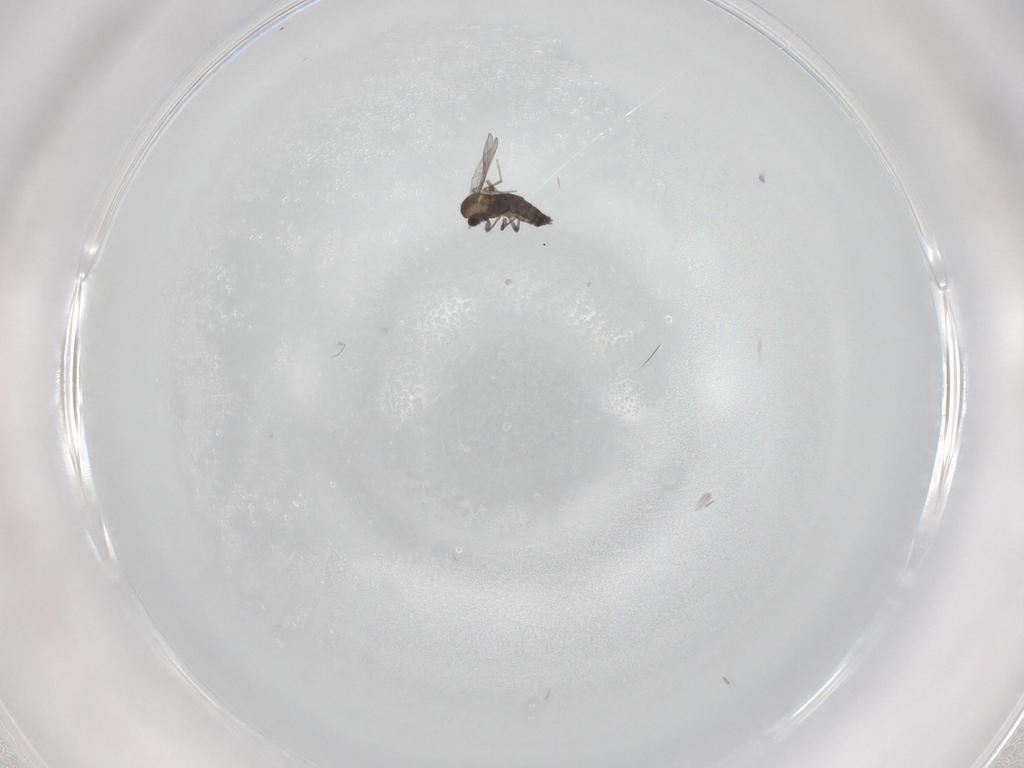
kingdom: Animalia
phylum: Arthropoda
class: Insecta
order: Diptera
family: Chironomidae
